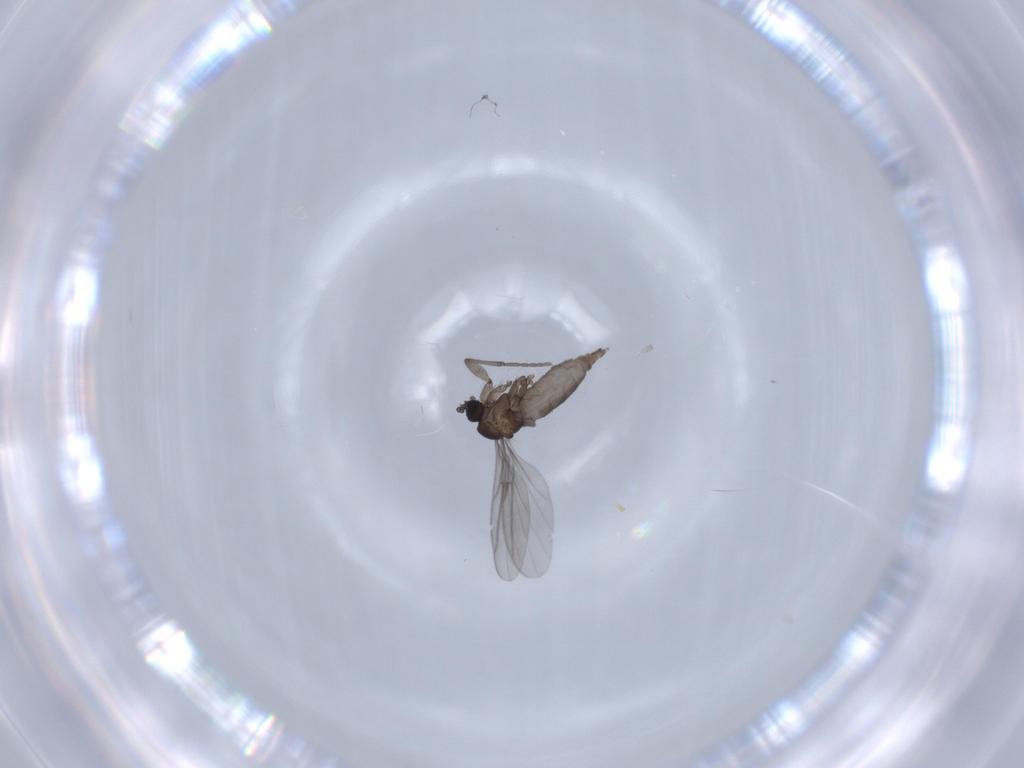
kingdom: Animalia
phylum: Arthropoda
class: Insecta
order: Diptera
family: Sciaridae
